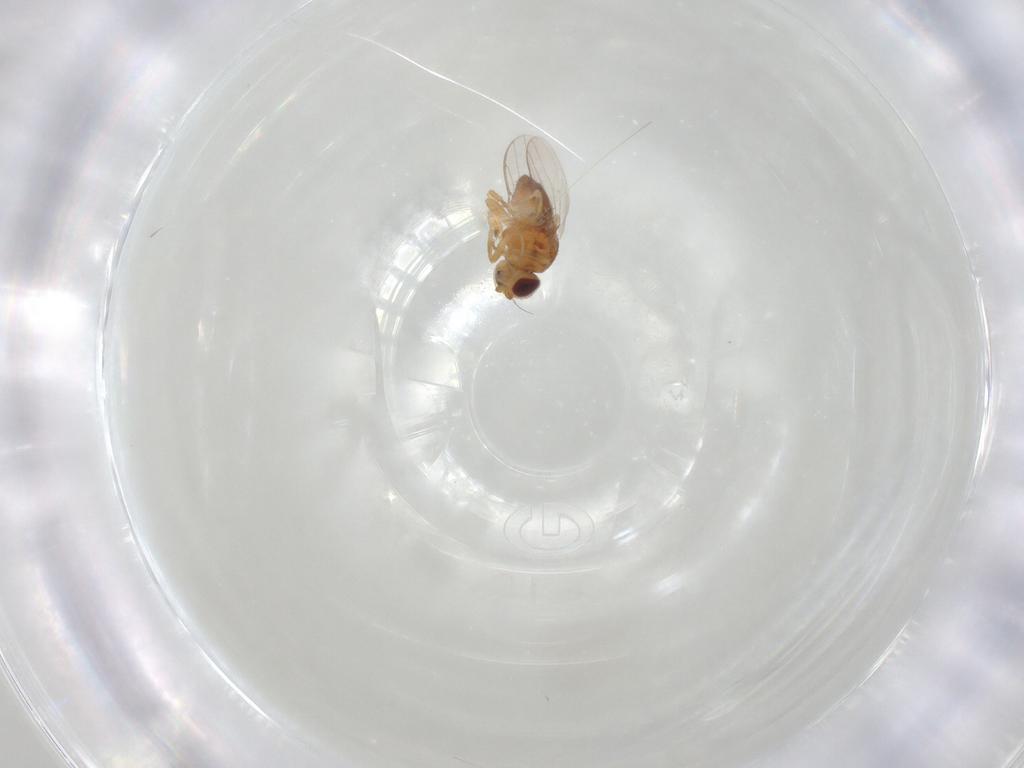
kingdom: Animalia
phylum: Arthropoda
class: Insecta
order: Diptera
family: Chloropidae
